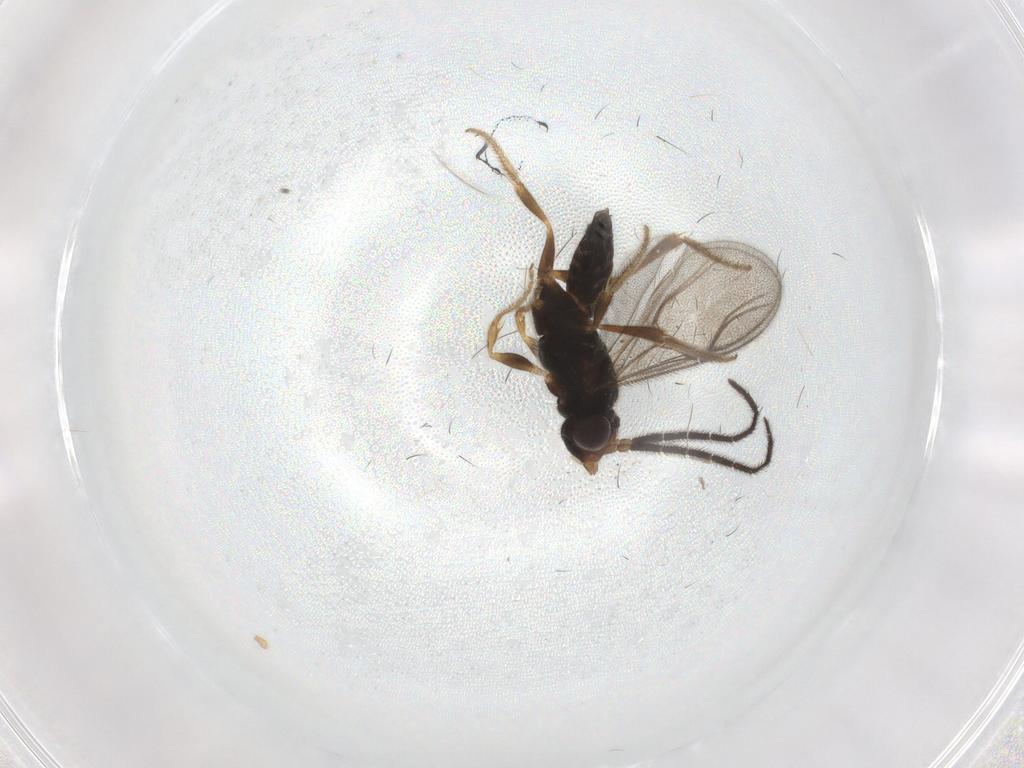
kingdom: Animalia
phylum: Arthropoda
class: Insecta
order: Hymenoptera
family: Dryinidae
